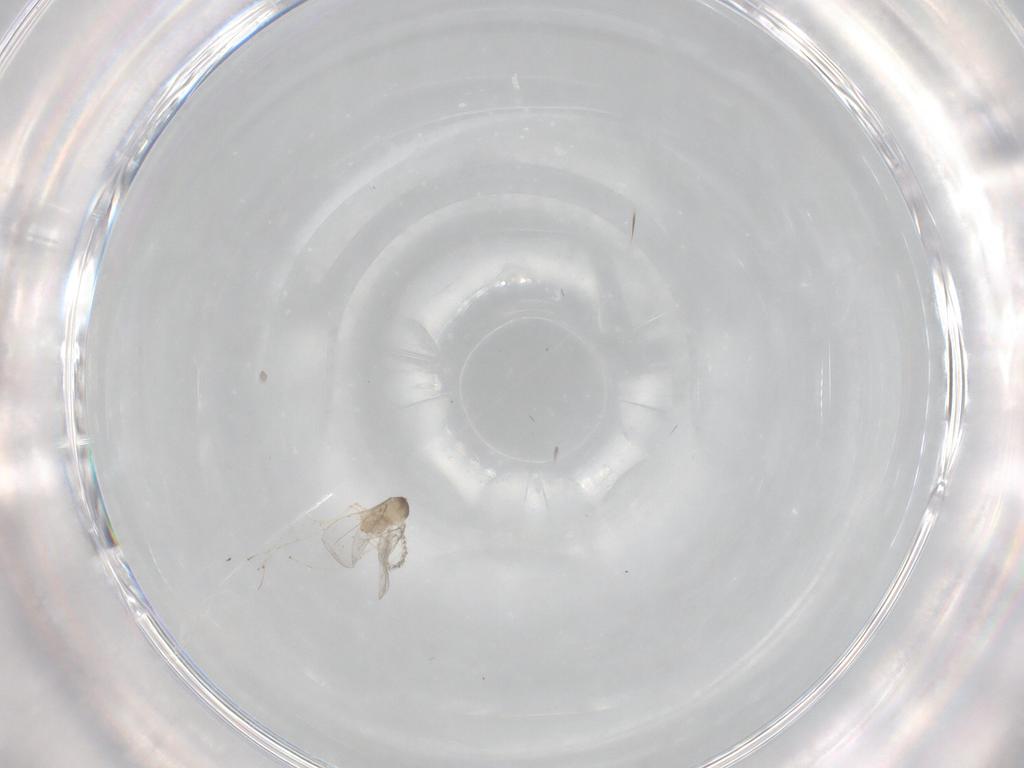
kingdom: Animalia
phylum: Arthropoda
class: Insecta
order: Diptera
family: Cecidomyiidae
